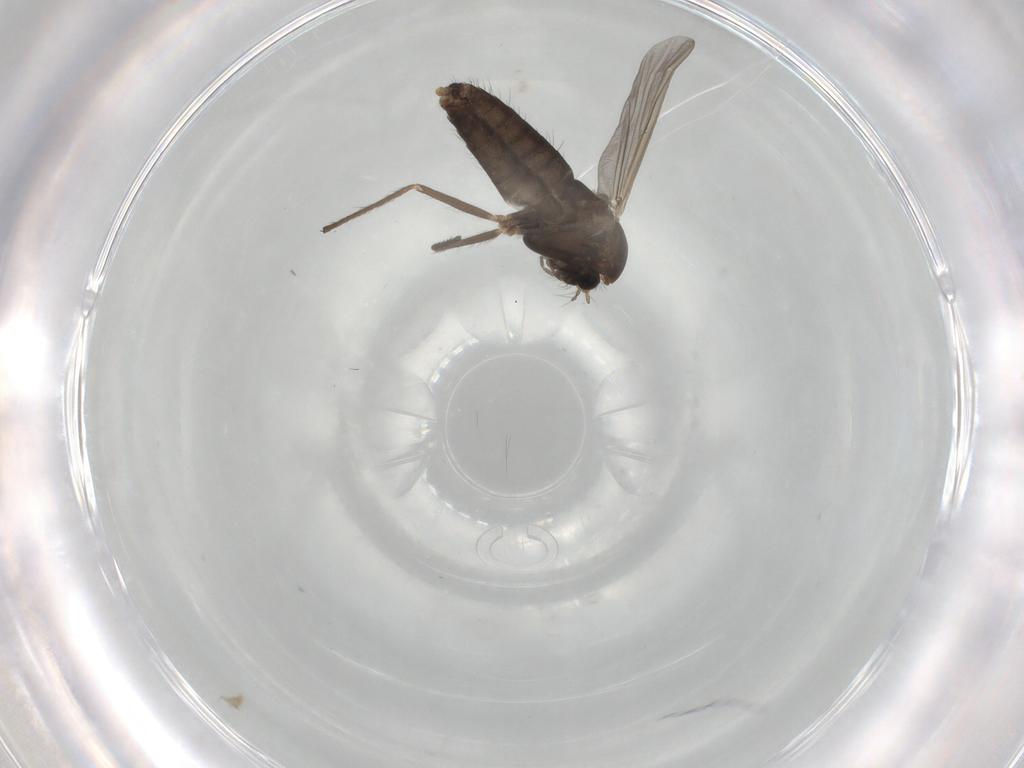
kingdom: Animalia
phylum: Arthropoda
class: Insecta
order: Diptera
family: Chironomidae
